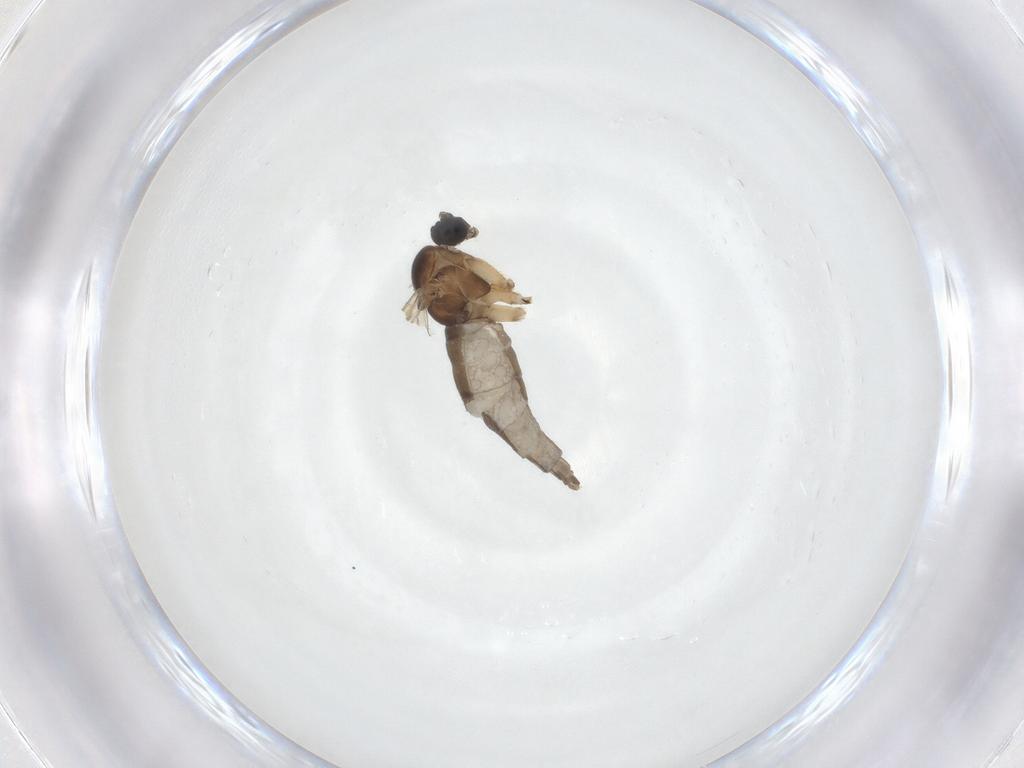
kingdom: Animalia
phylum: Arthropoda
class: Insecta
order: Diptera
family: Sciaridae
